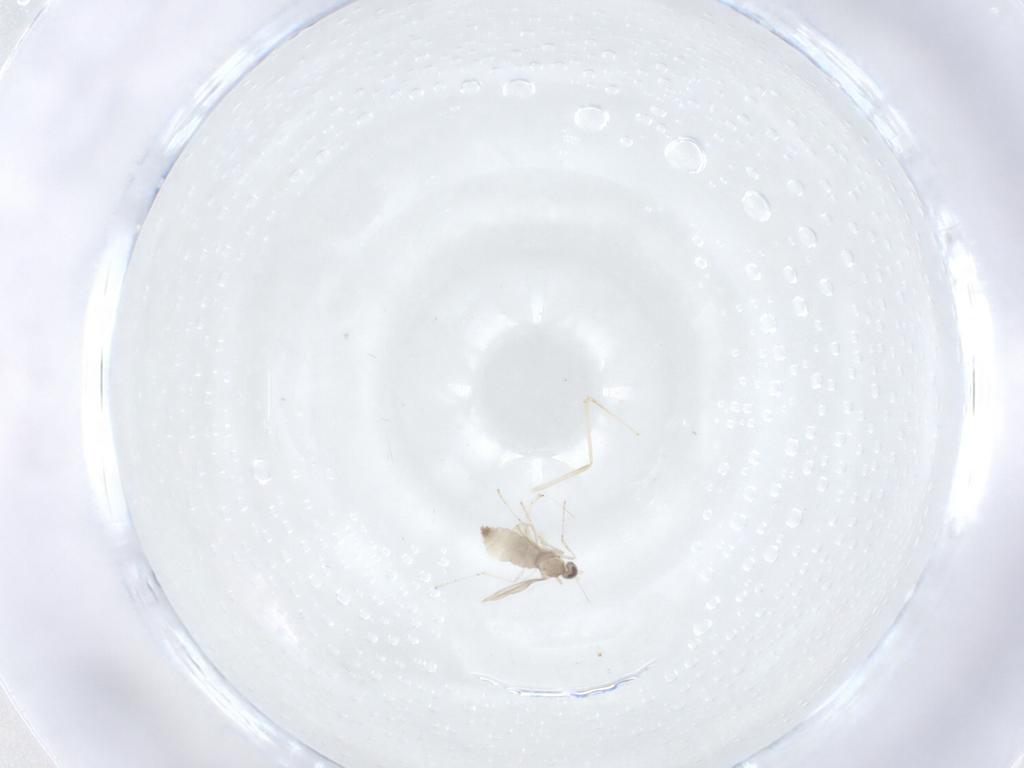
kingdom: Animalia
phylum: Arthropoda
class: Insecta
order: Diptera
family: Cecidomyiidae
